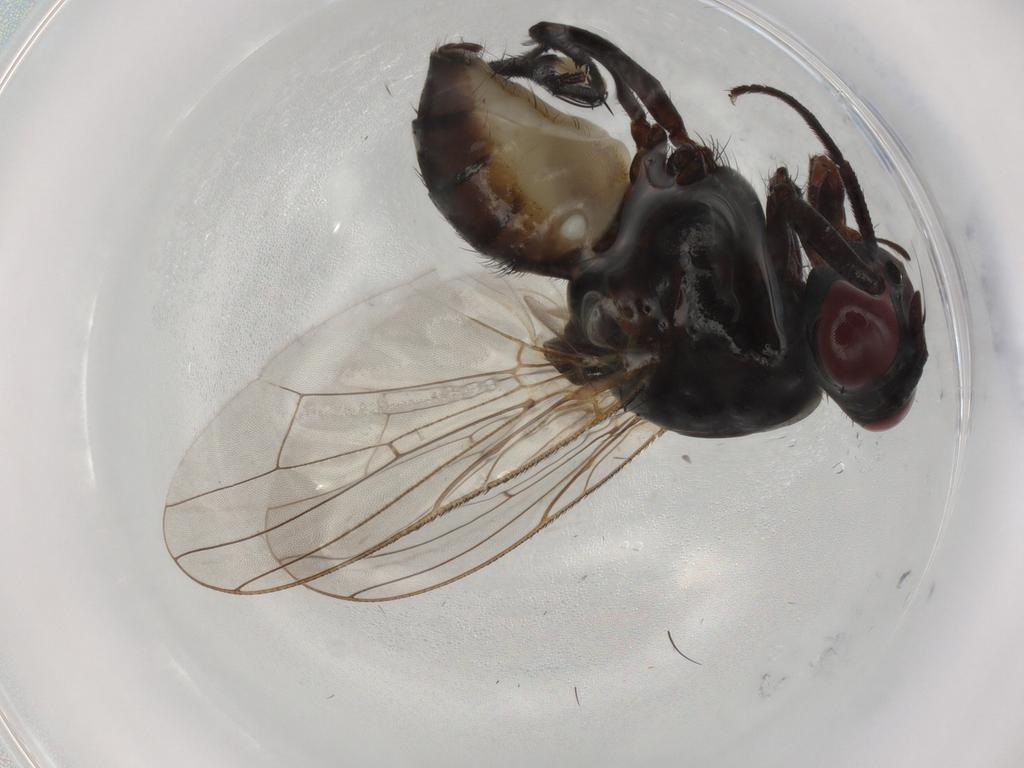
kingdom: Animalia
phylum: Arthropoda
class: Insecta
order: Diptera
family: Anthomyiidae
